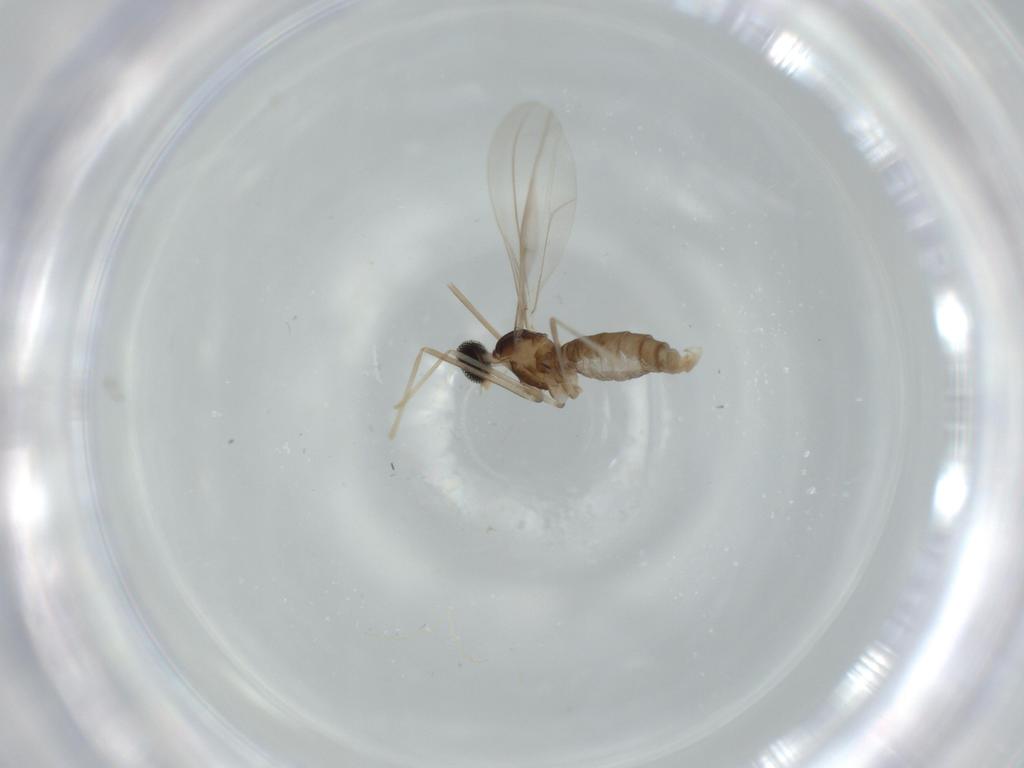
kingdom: Animalia
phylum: Arthropoda
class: Insecta
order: Diptera
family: Cecidomyiidae
